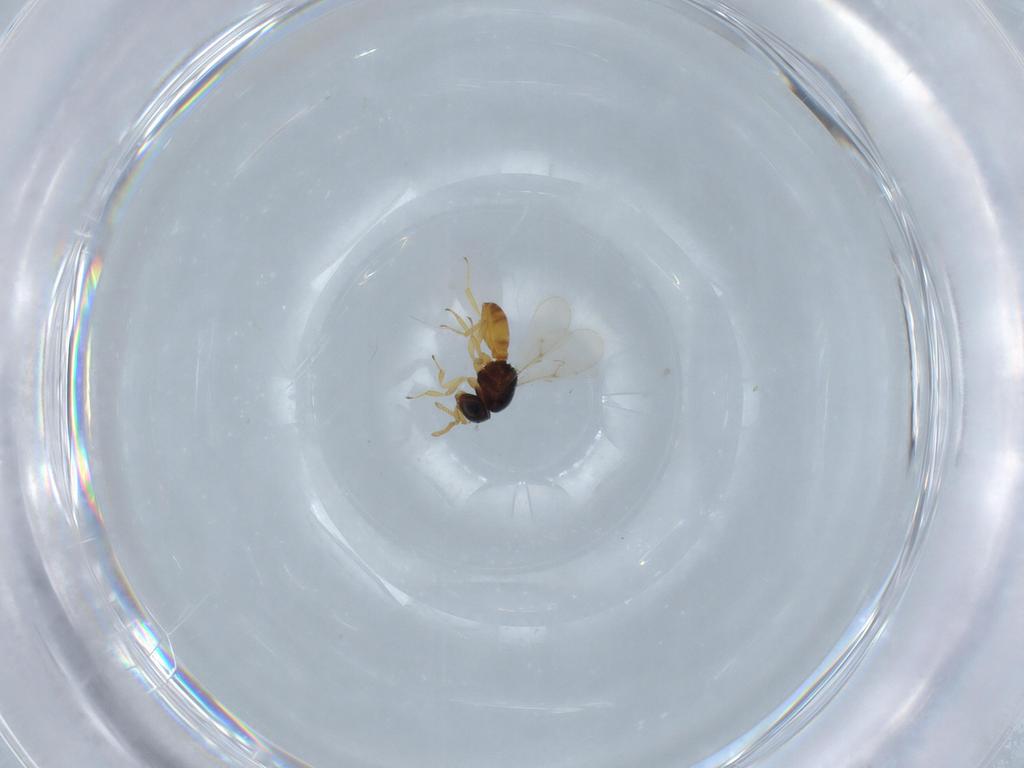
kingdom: Animalia
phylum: Arthropoda
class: Insecta
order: Hymenoptera
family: Scelionidae
